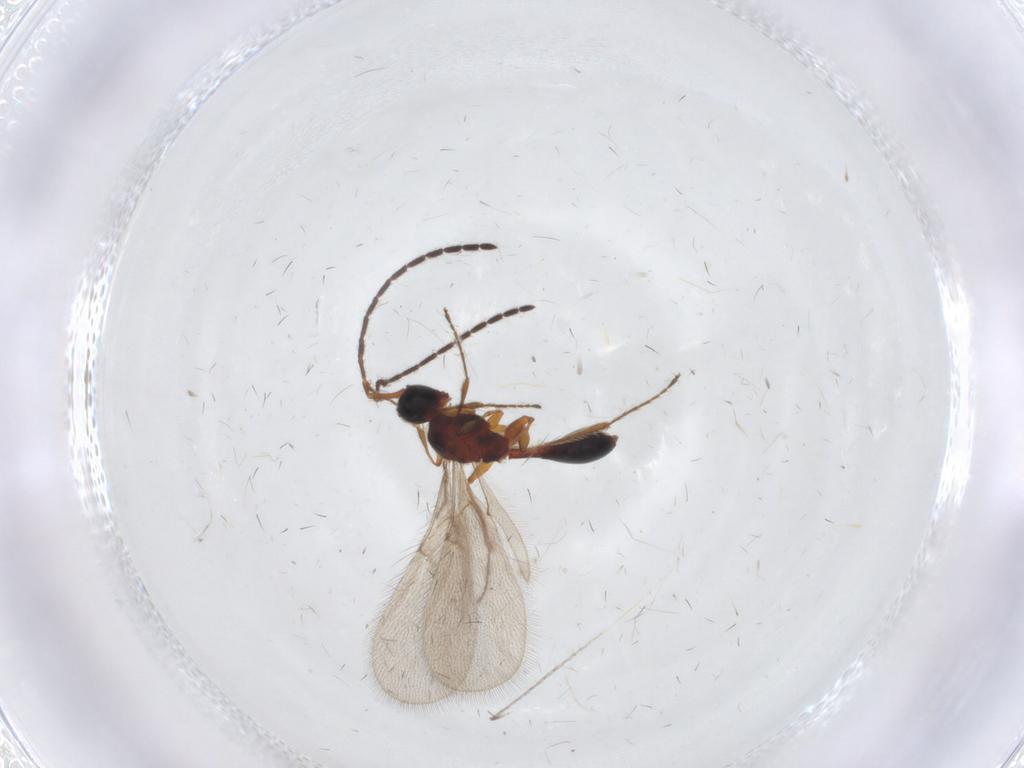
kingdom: Animalia
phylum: Arthropoda
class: Insecta
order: Hymenoptera
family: Diapriidae
